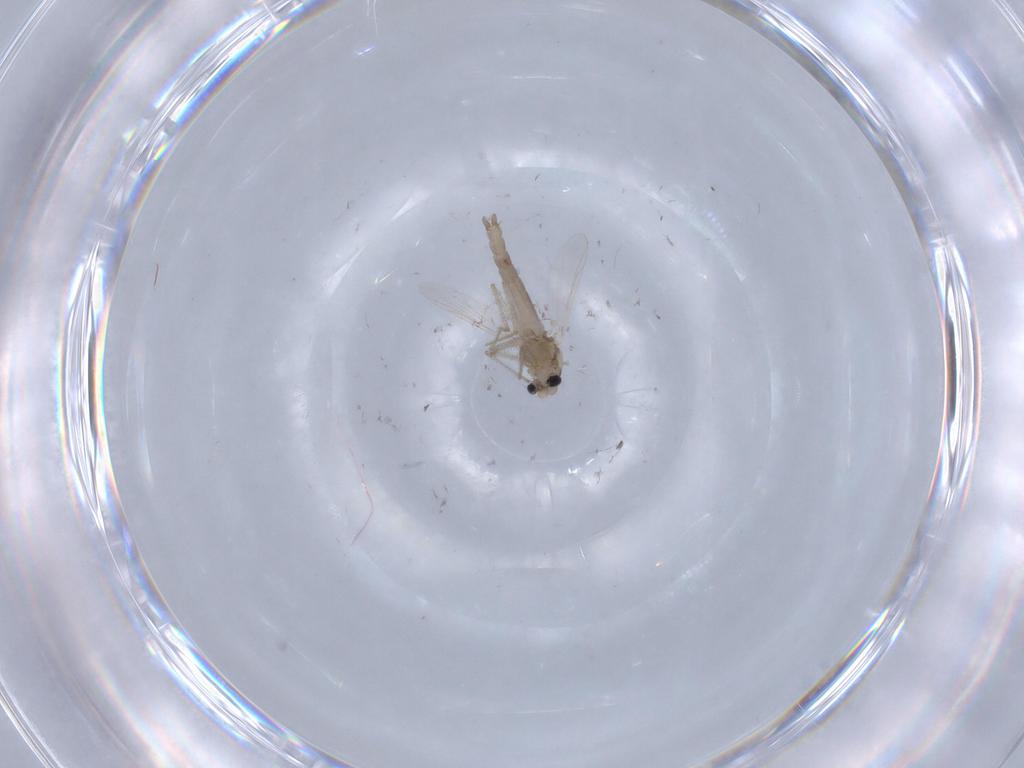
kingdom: Animalia
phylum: Arthropoda
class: Insecta
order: Diptera
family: Chironomidae
